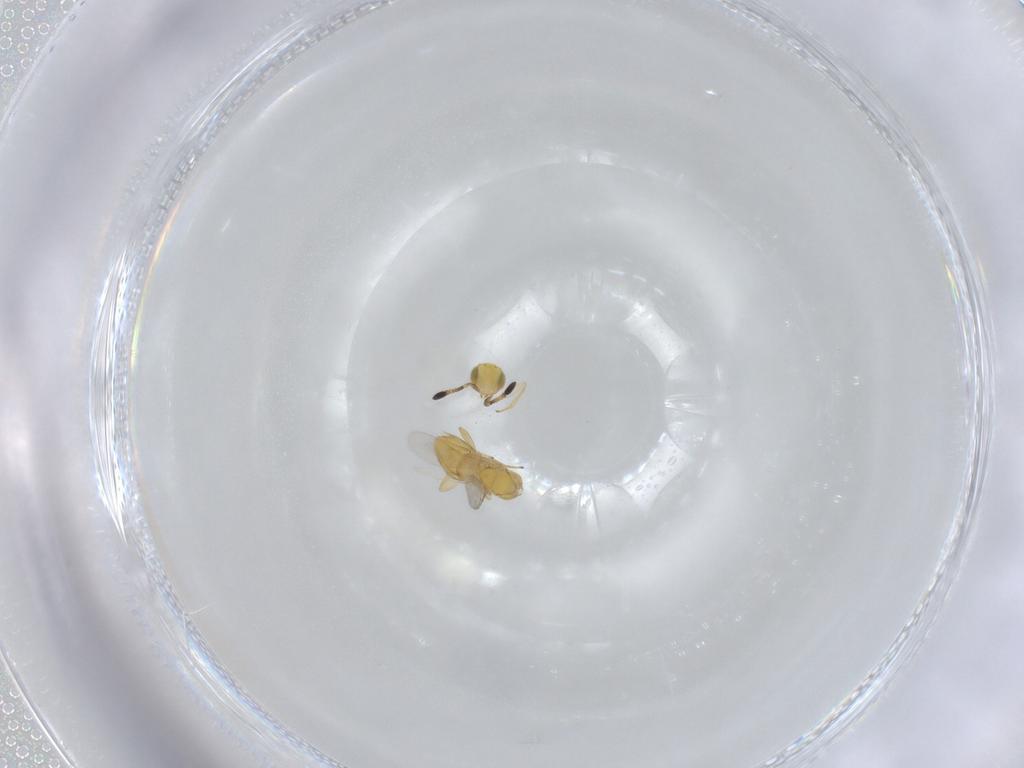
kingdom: Animalia
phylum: Arthropoda
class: Insecta
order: Hymenoptera
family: Encyrtidae
